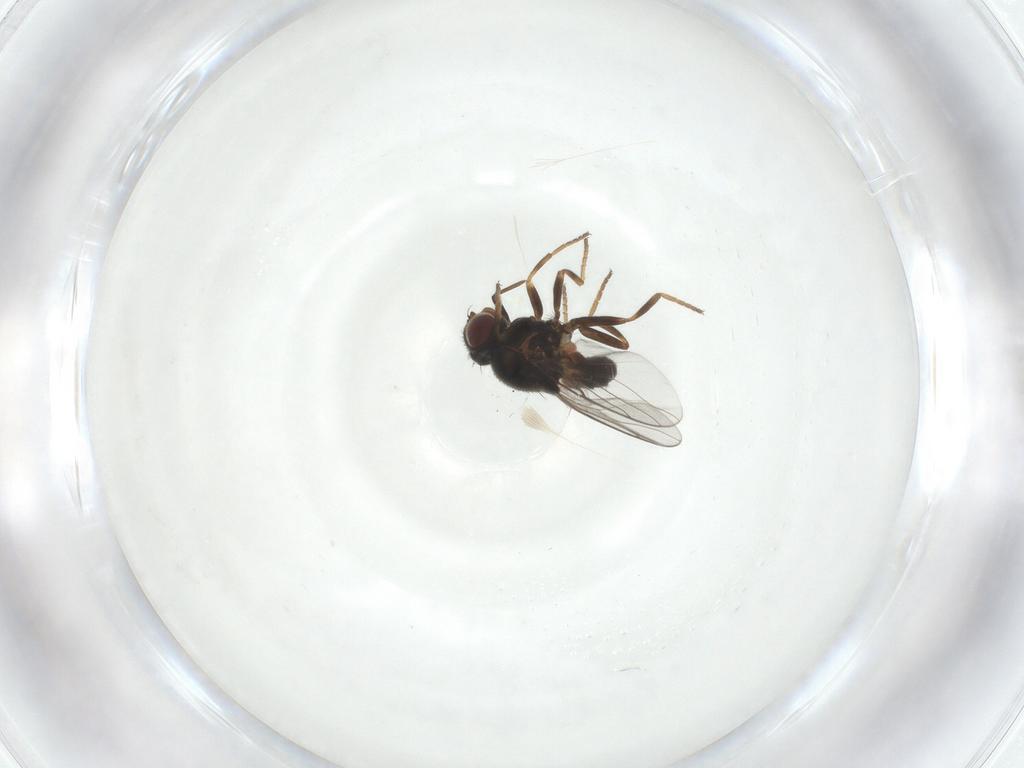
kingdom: Animalia
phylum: Arthropoda
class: Insecta
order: Diptera
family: Chloropidae
